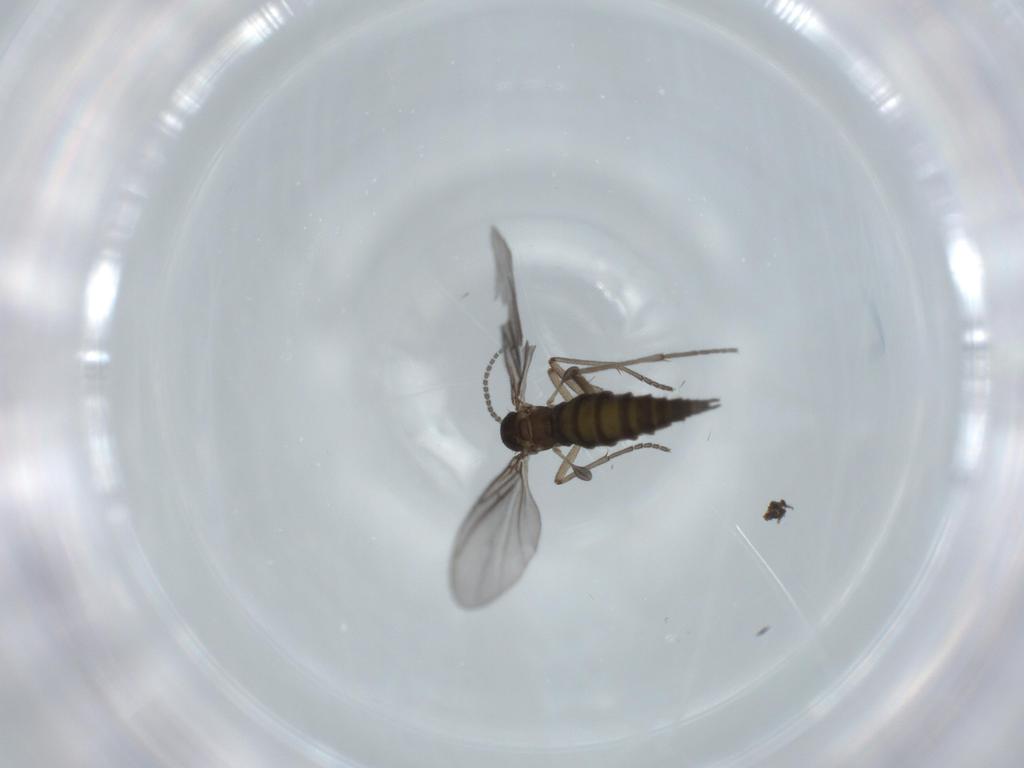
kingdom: Animalia
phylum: Arthropoda
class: Insecta
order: Diptera
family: Sciaridae
